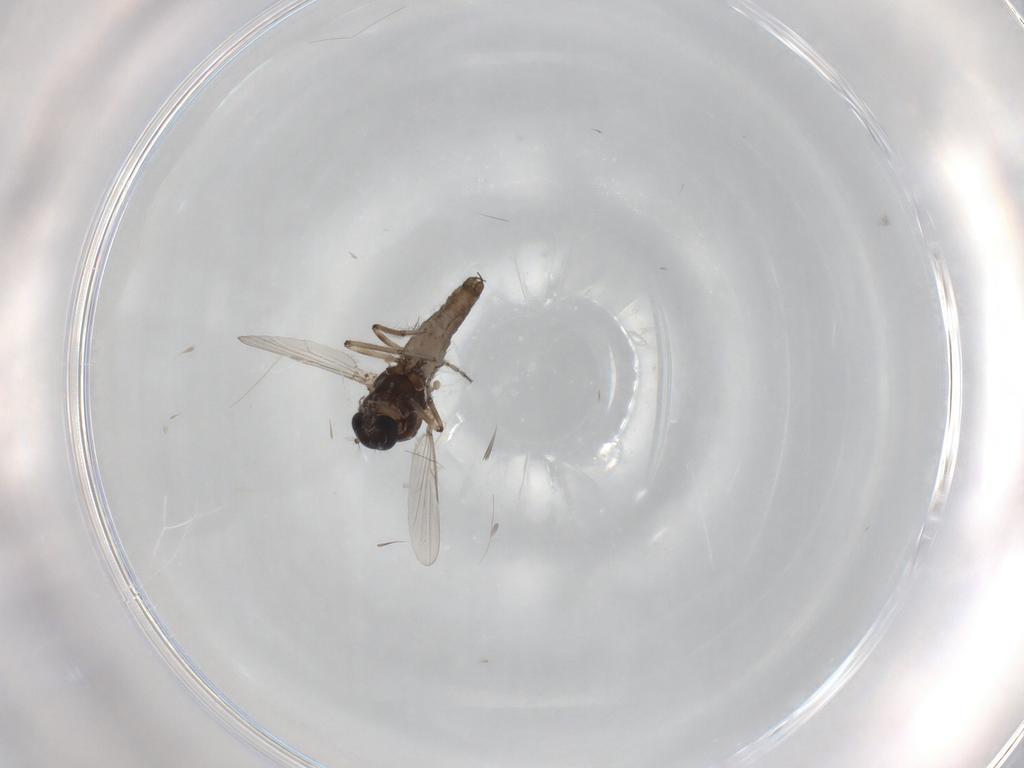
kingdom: Animalia
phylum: Arthropoda
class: Insecta
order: Diptera
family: Ceratopogonidae
